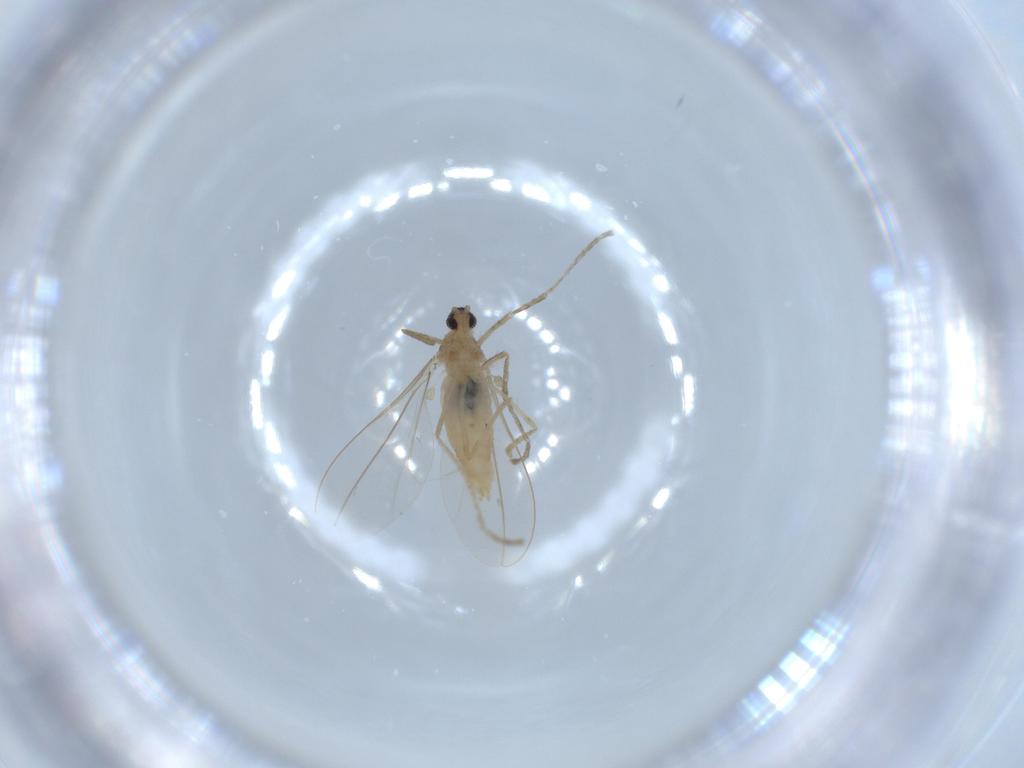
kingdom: Animalia
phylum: Arthropoda
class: Insecta
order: Diptera
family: Cecidomyiidae
